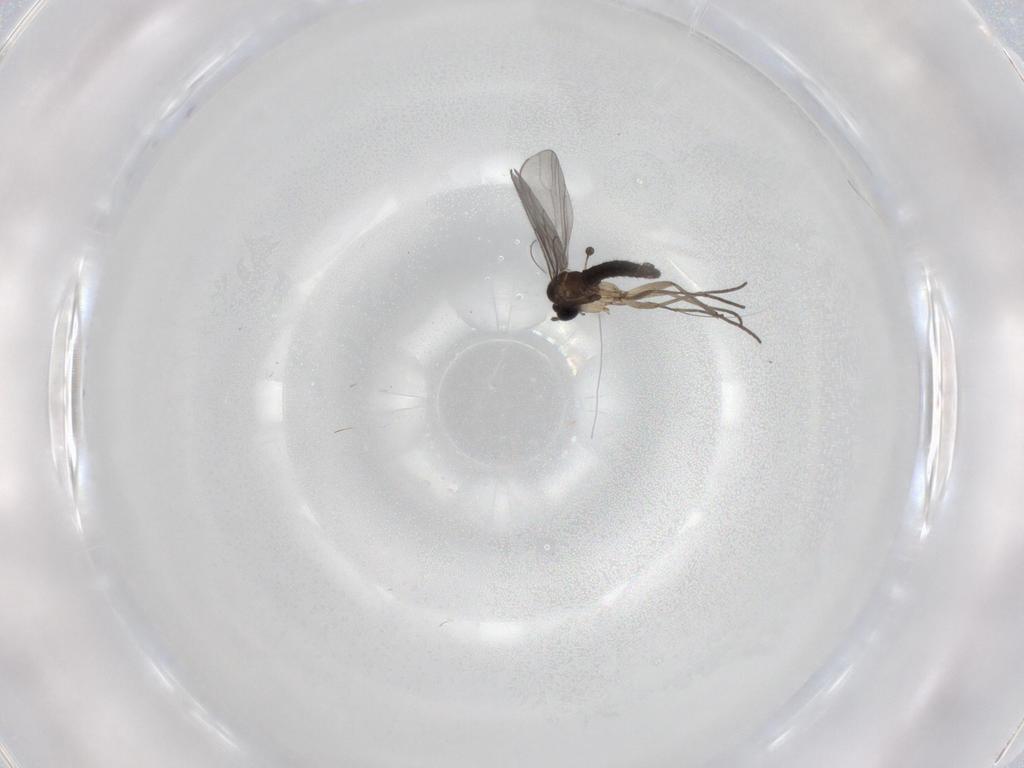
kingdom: Animalia
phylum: Arthropoda
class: Insecta
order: Diptera
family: Sciaridae
